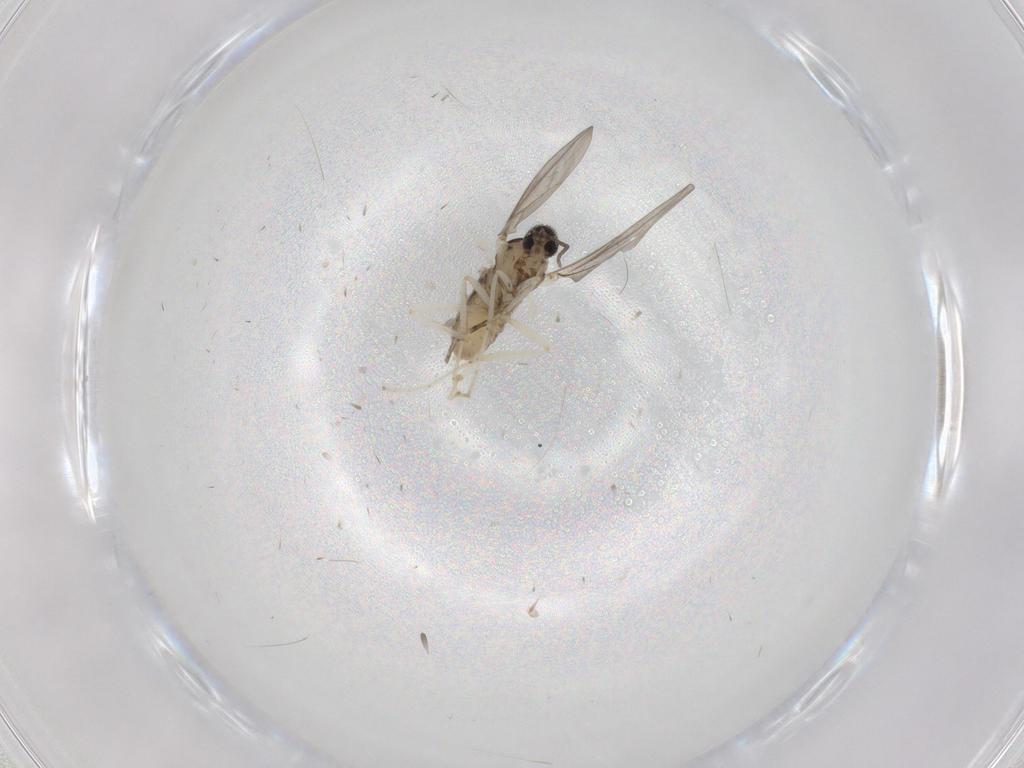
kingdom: Animalia
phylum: Arthropoda
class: Insecta
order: Diptera
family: Cecidomyiidae
